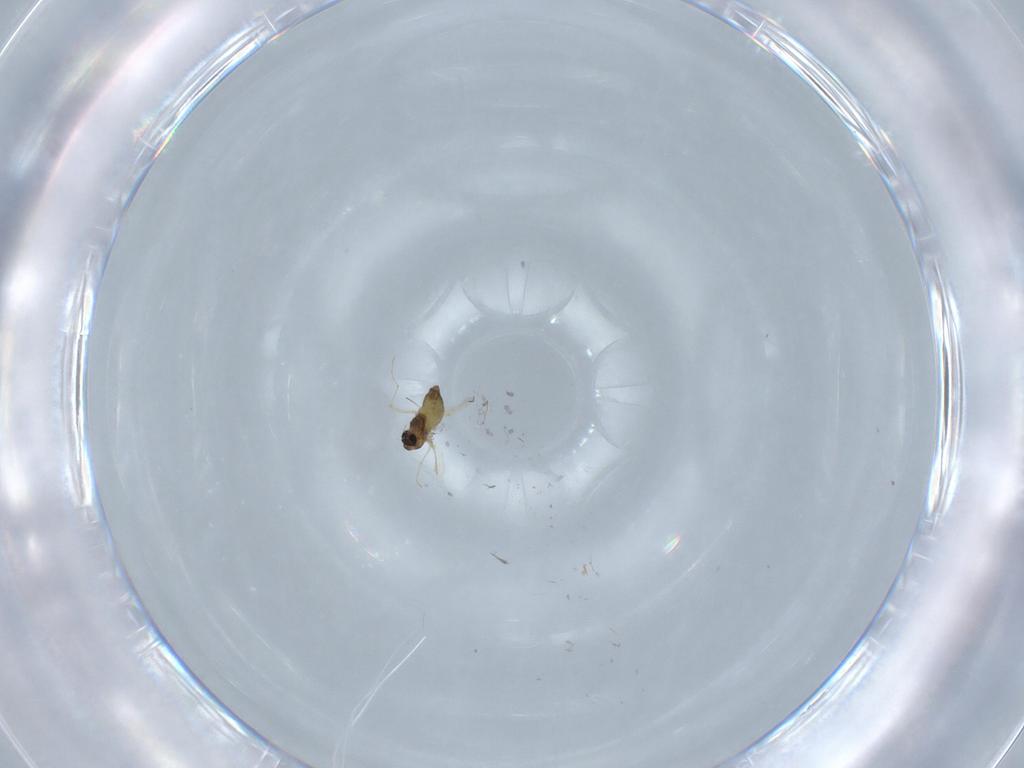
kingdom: Animalia
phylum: Arthropoda
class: Insecta
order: Diptera
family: Chironomidae
